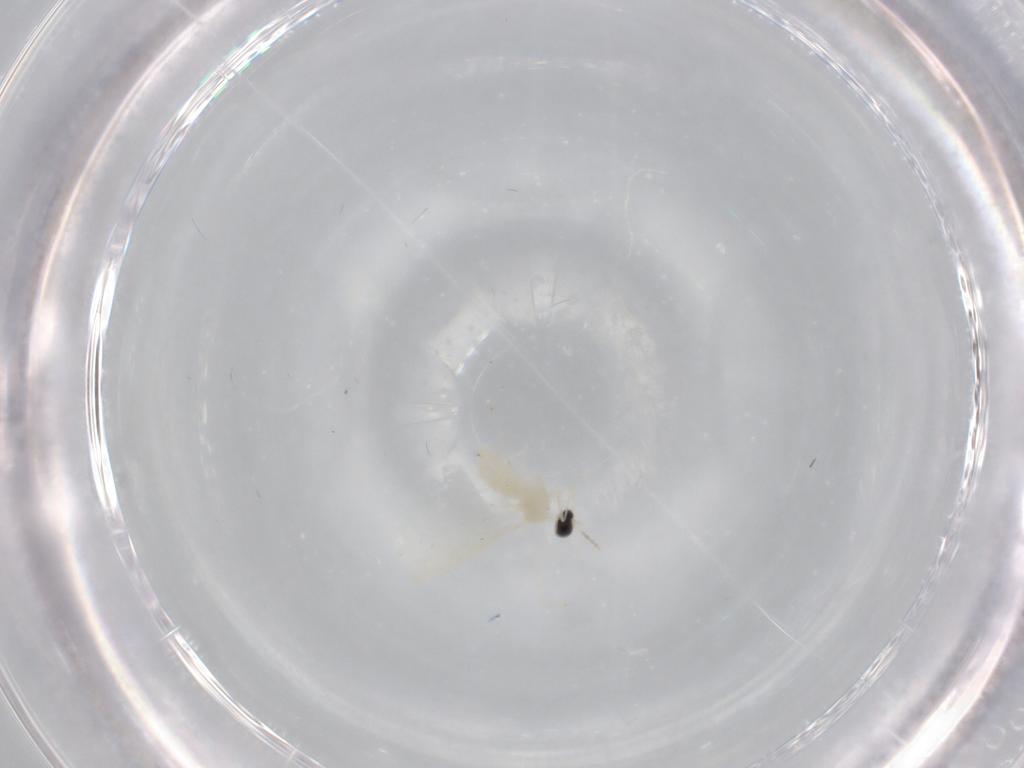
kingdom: Animalia
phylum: Arthropoda
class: Insecta
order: Diptera
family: Cecidomyiidae
